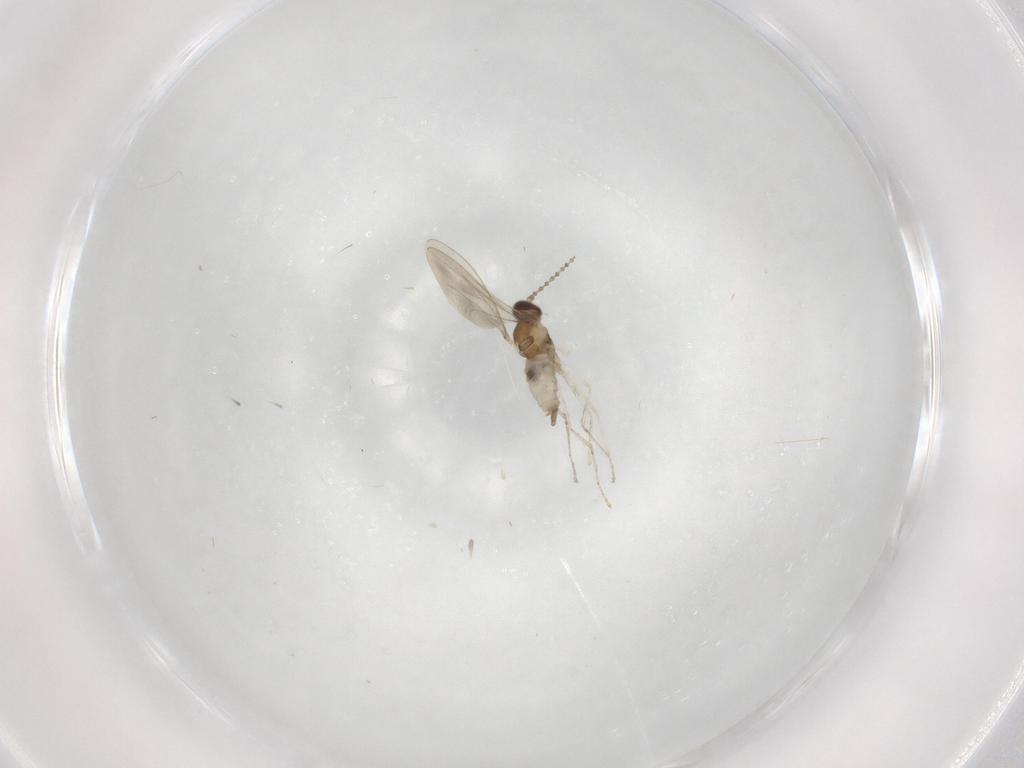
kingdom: Animalia
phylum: Arthropoda
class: Insecta
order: Diptera
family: Cecidomyiidae
